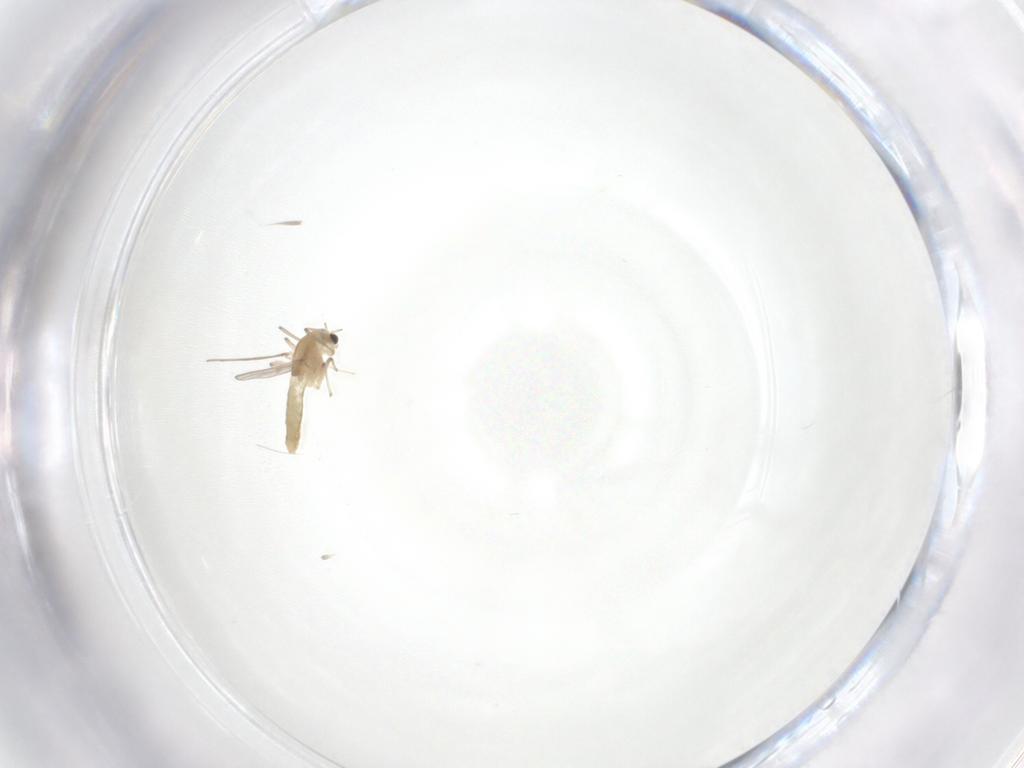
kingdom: Animalia
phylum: Arthropoda
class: Insecta
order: Diptera
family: Chironomidae
